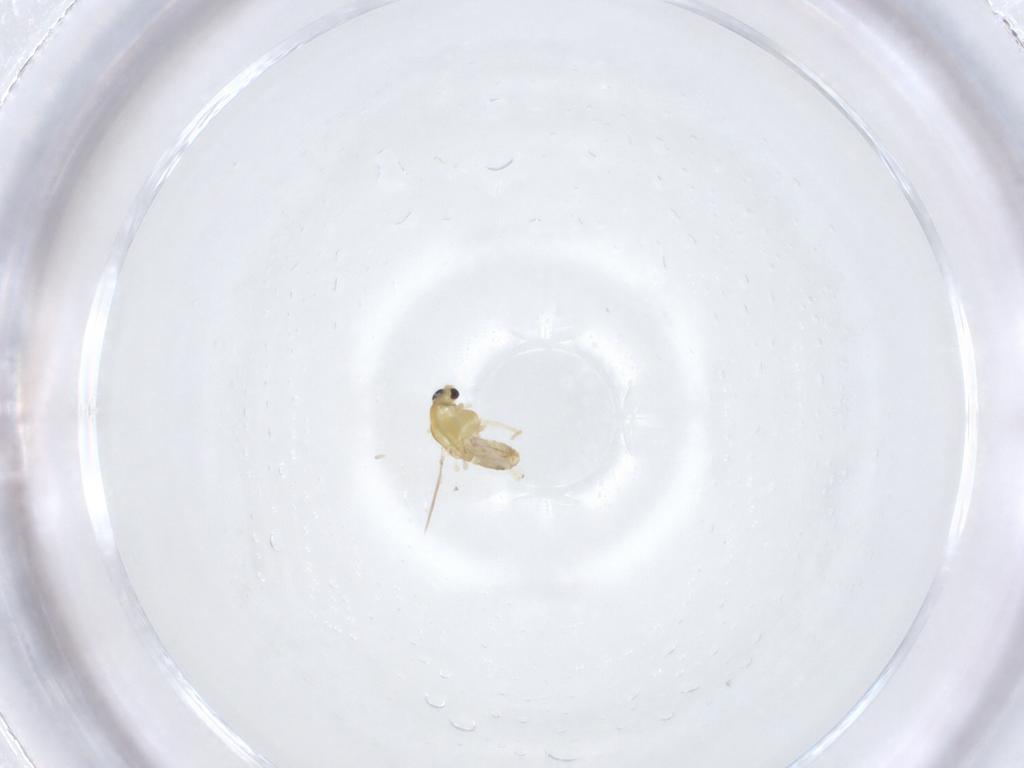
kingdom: Animalia
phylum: Arthropoda
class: Insecta
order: Diptera
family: Chironomidae
